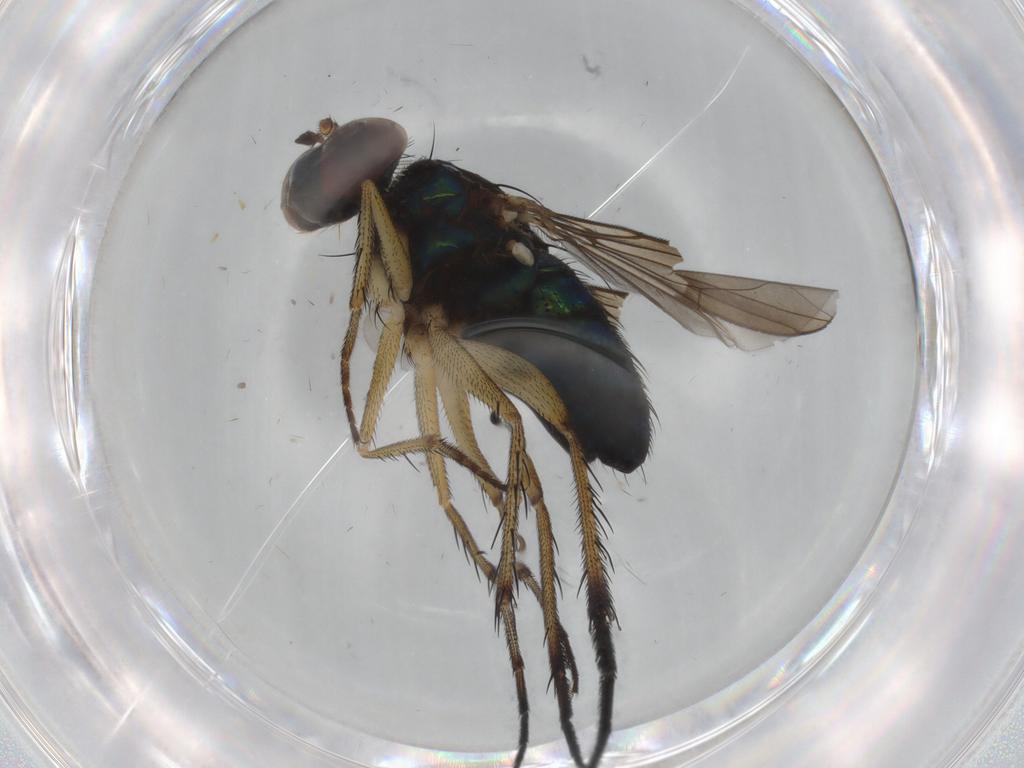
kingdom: Animalia
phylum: Arthropoda
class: Insecta
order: Diptera
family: Dolichopodidae
